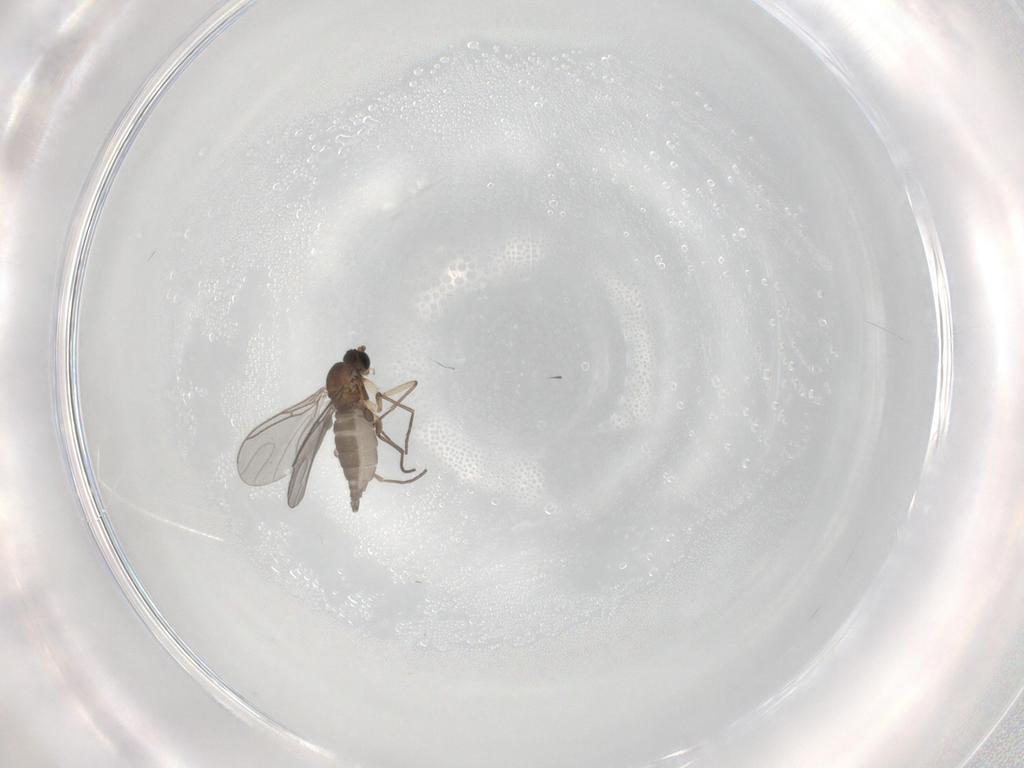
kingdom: Animalia
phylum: Arthropoda
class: Insecta
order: Diptera
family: Sciaridae
